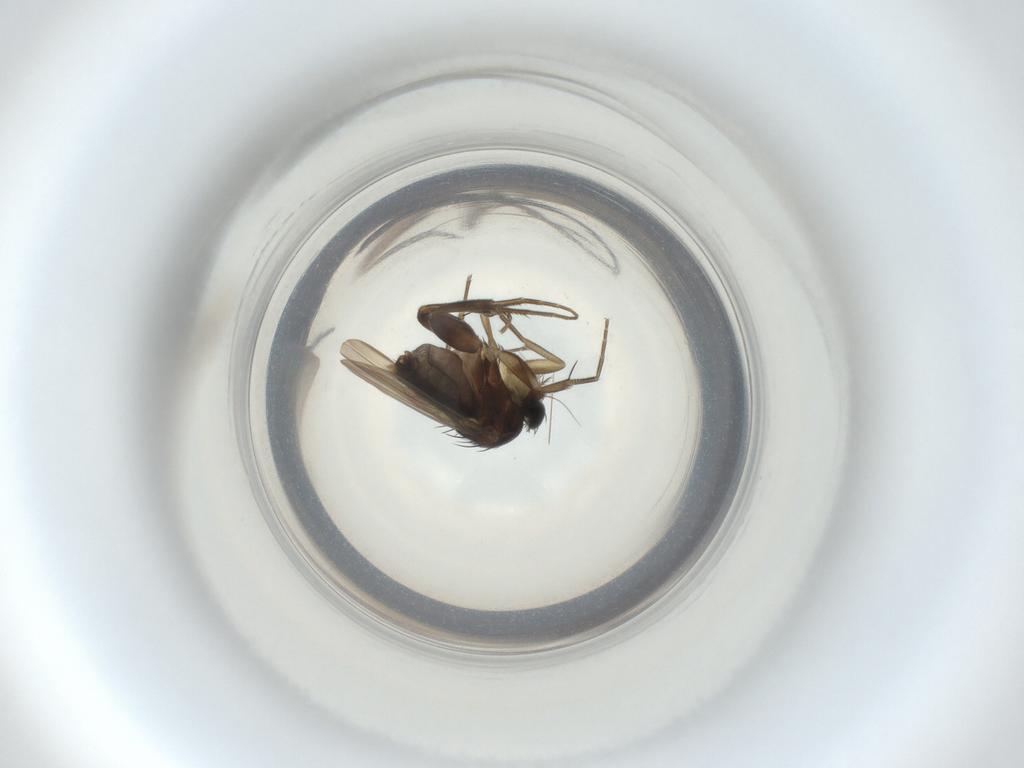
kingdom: Animalia
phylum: Arthropoda
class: Insecta
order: Diptera
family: Phoridae
